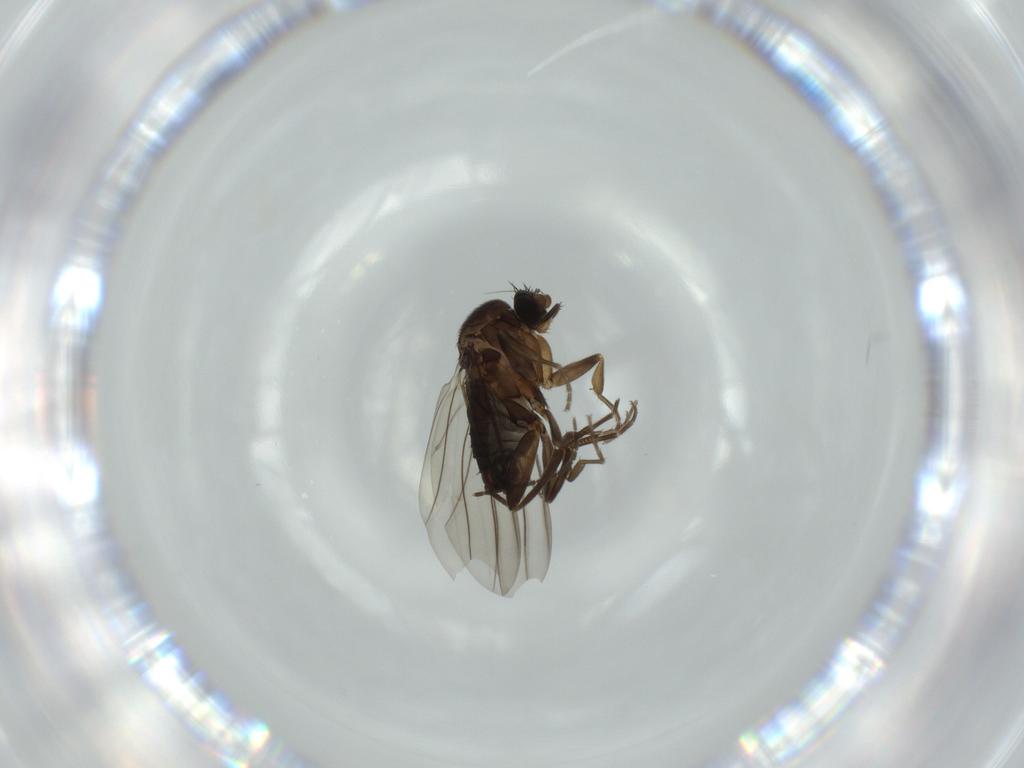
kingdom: Animalia
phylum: Arthropoda
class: Insecta
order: Diptera
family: Sciaridae
